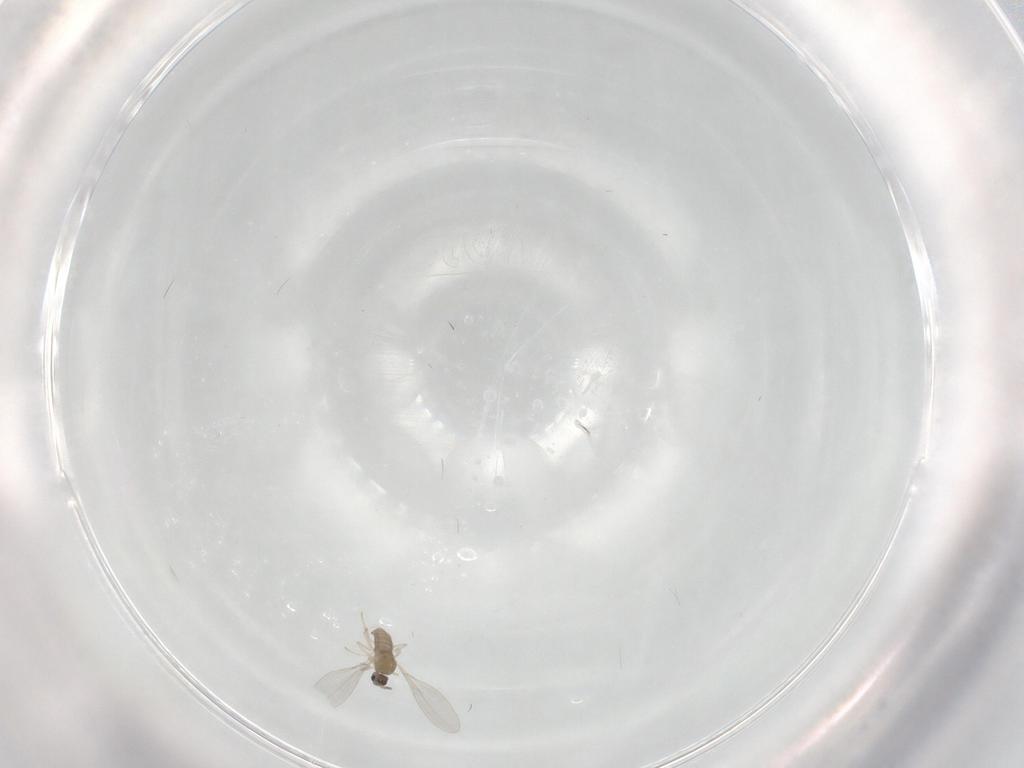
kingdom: Animalia
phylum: Arthropoda
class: Insecta
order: Diptera
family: Cecidomyiidae
